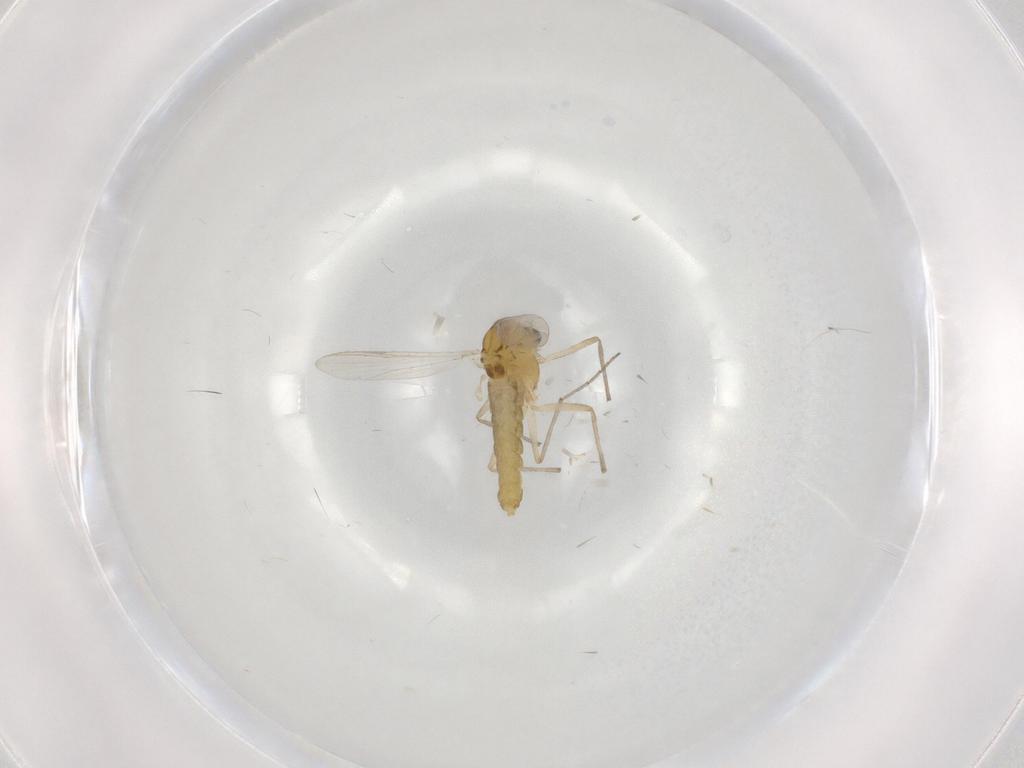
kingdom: Animalia
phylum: Arthropoda
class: Insecta
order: Diptera
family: Chironomidae
